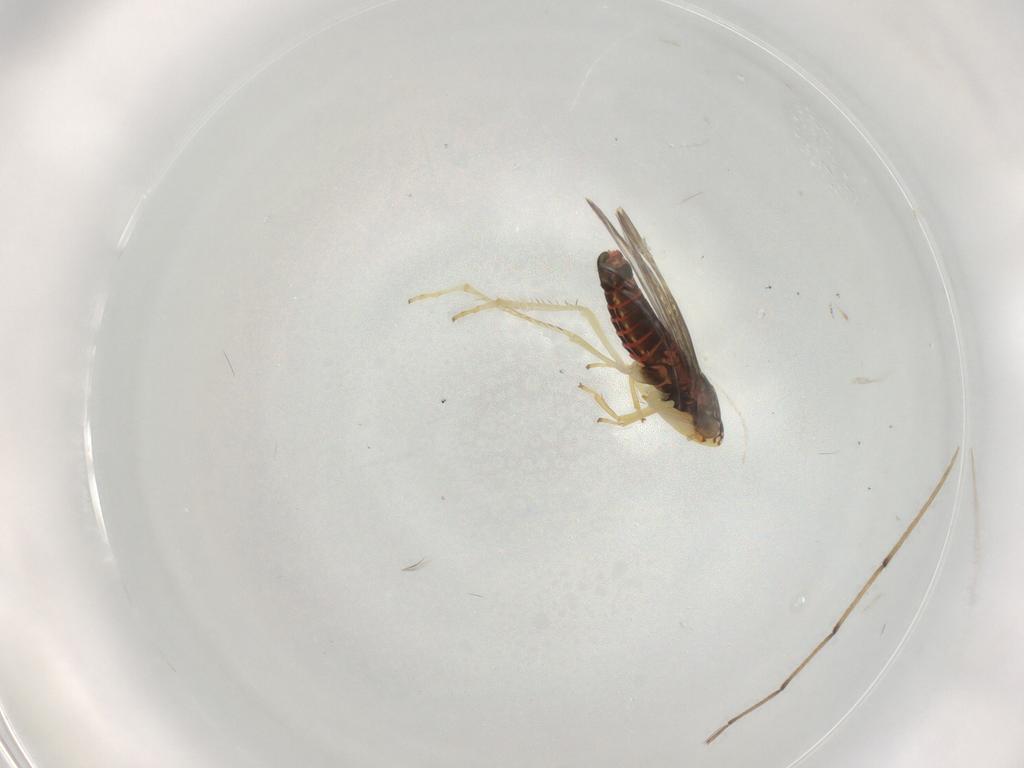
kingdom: Animalia
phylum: Arthropoda
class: Insecta
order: Hemiptera
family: Cicadellidae
